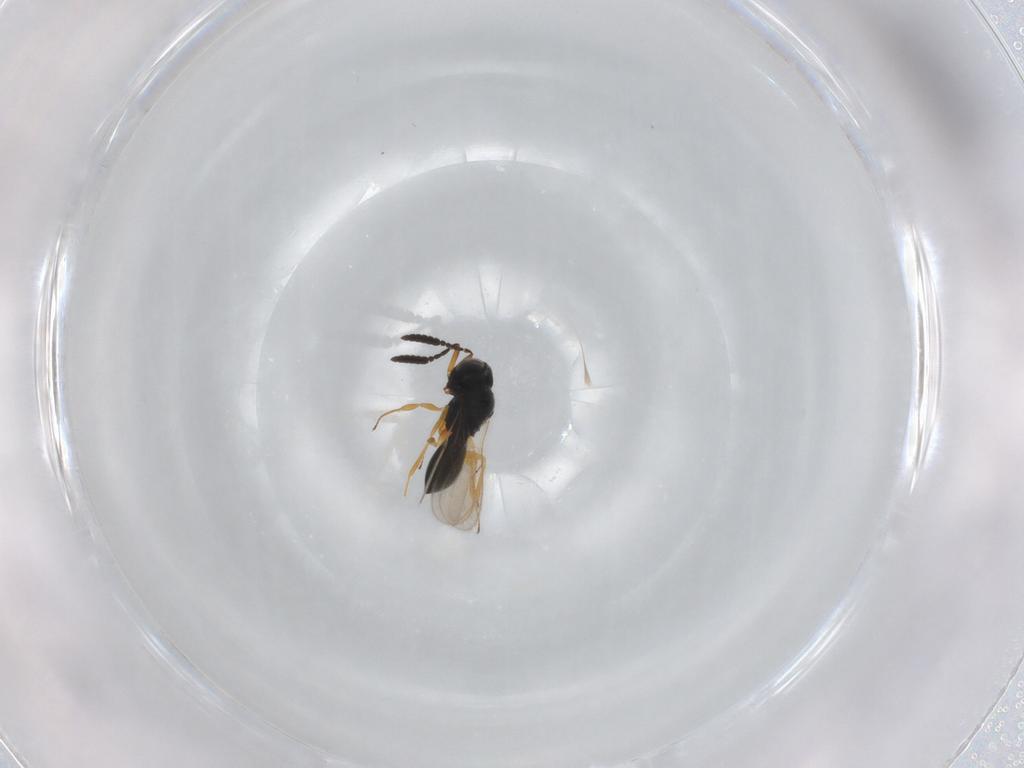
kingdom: Animalia
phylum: Arthropoda
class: Insecta
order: Hymenoptera
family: Scelionidae
